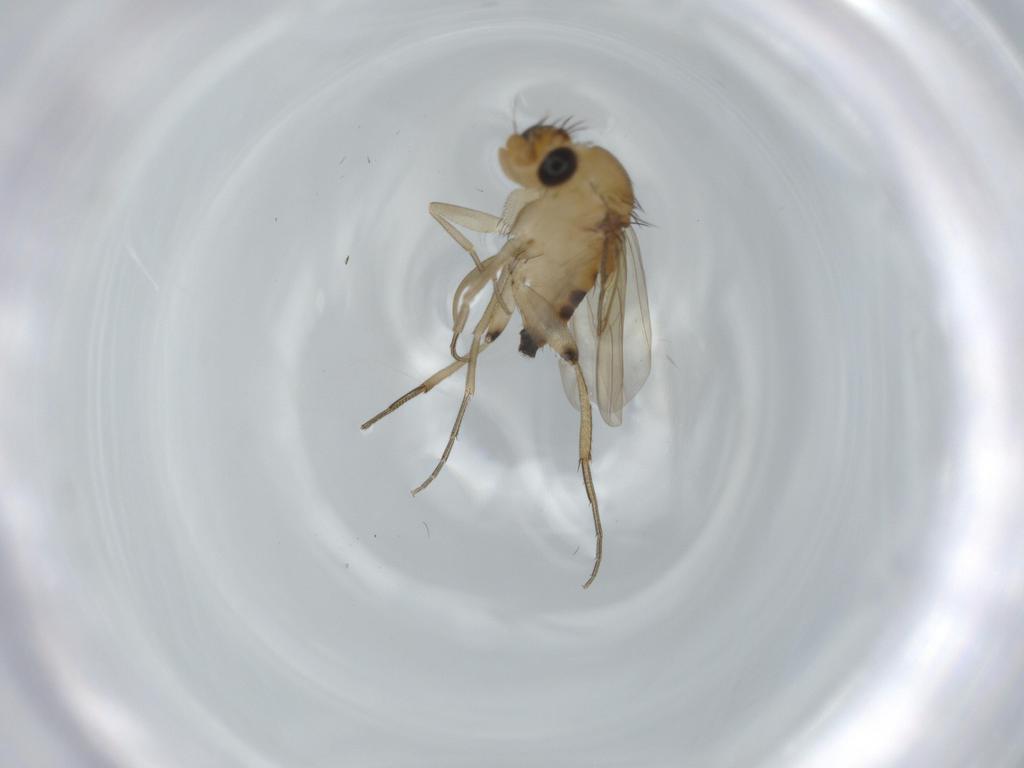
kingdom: Animalia
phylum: Arthropoda
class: Insecta
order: Diptera
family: Phoridae
